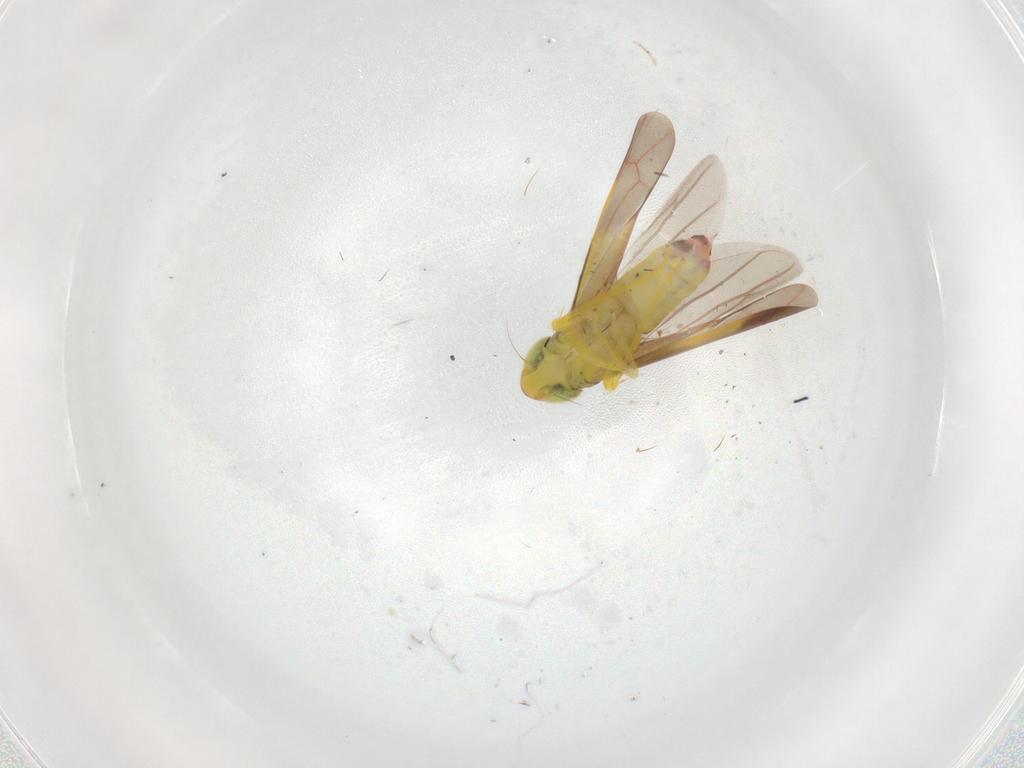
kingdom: Animalia
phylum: Arthropoda
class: Insecta
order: Hemiptera
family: Cicadellidae
